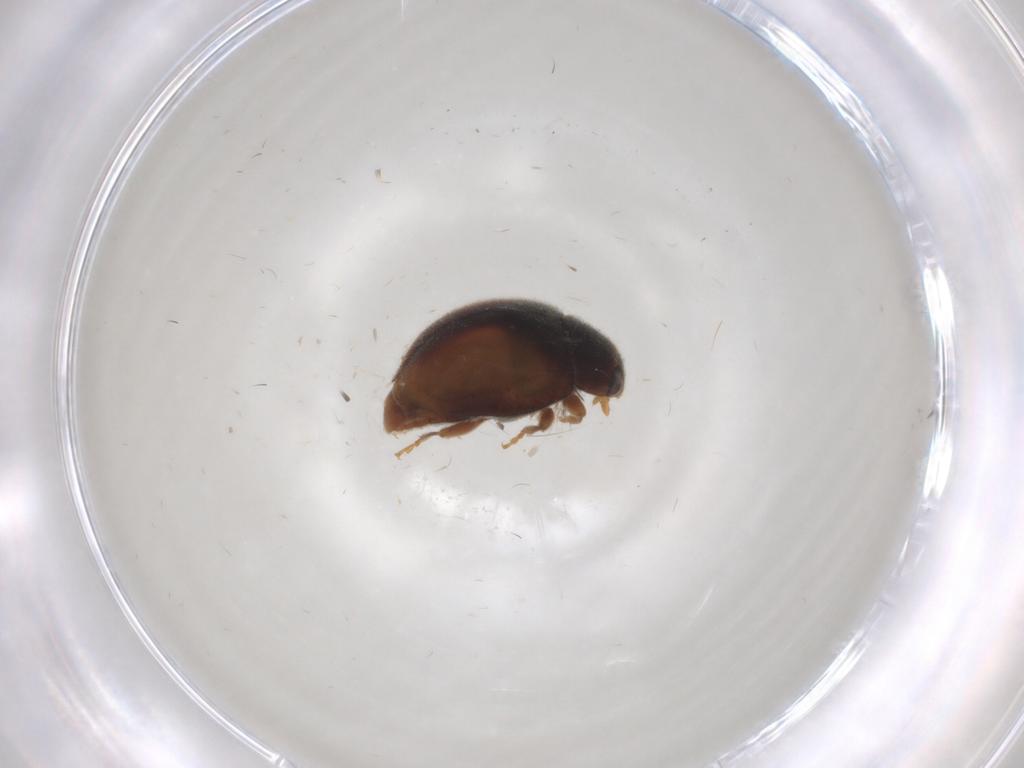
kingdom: Animalia
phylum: Arthropoda
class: Insecta
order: Coleoptera
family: Coccinellidae
